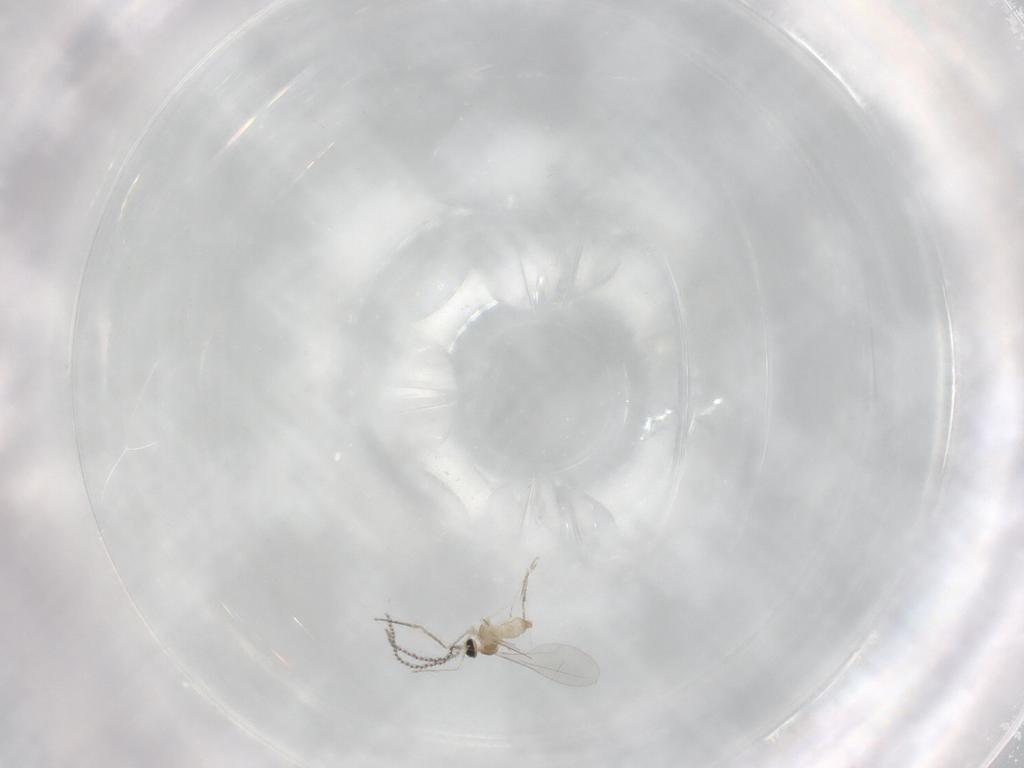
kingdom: Animalia
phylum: Arthropoda
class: Insecta
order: Diptera
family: Cecidomyiidae
